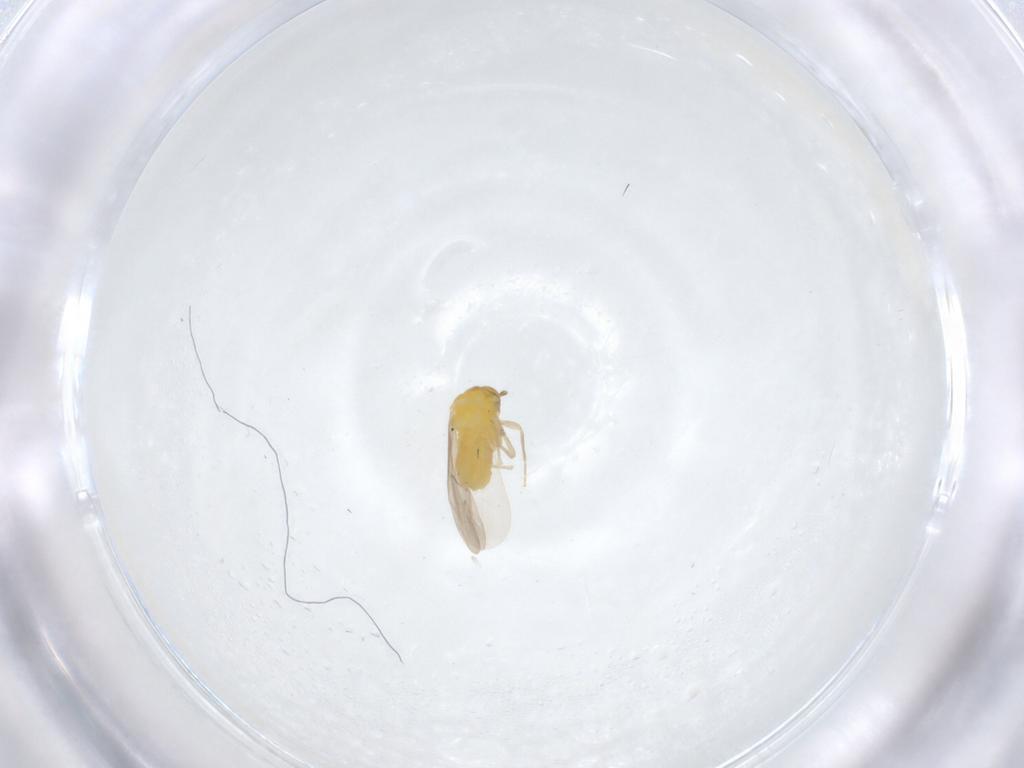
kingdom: Animalia
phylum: Arthropoda
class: Insecta
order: Hemiptera
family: Aleyrodidae
